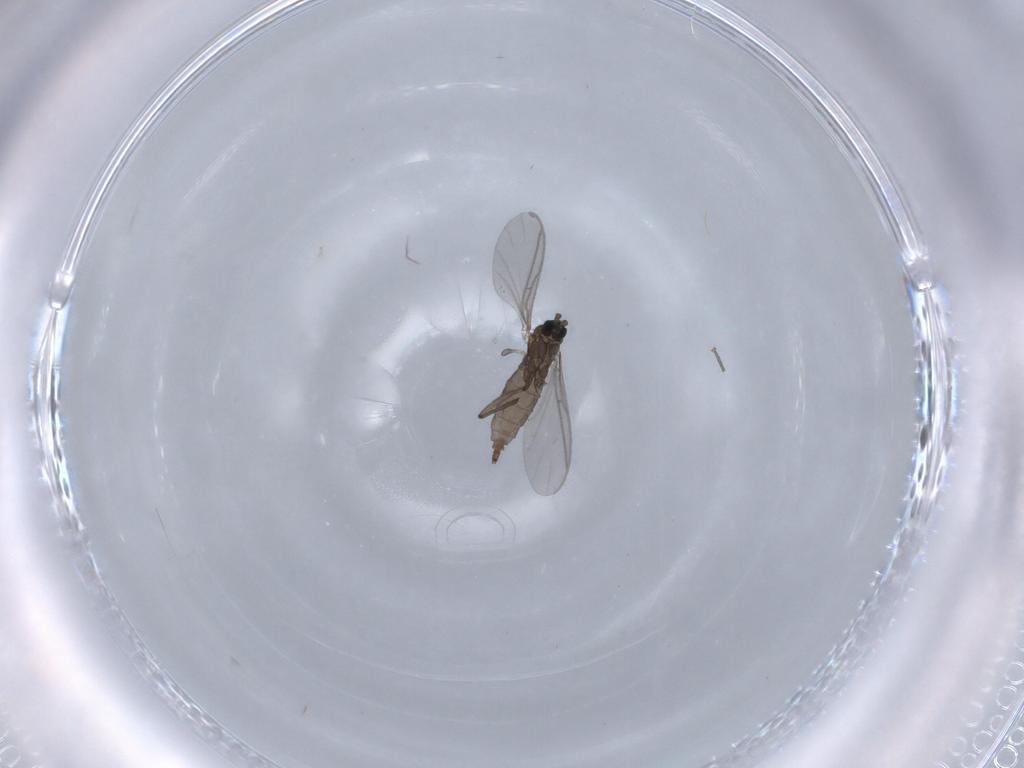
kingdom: Animalia
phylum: Arthropoda
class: Insecta
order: Diptera
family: Sciaridae
